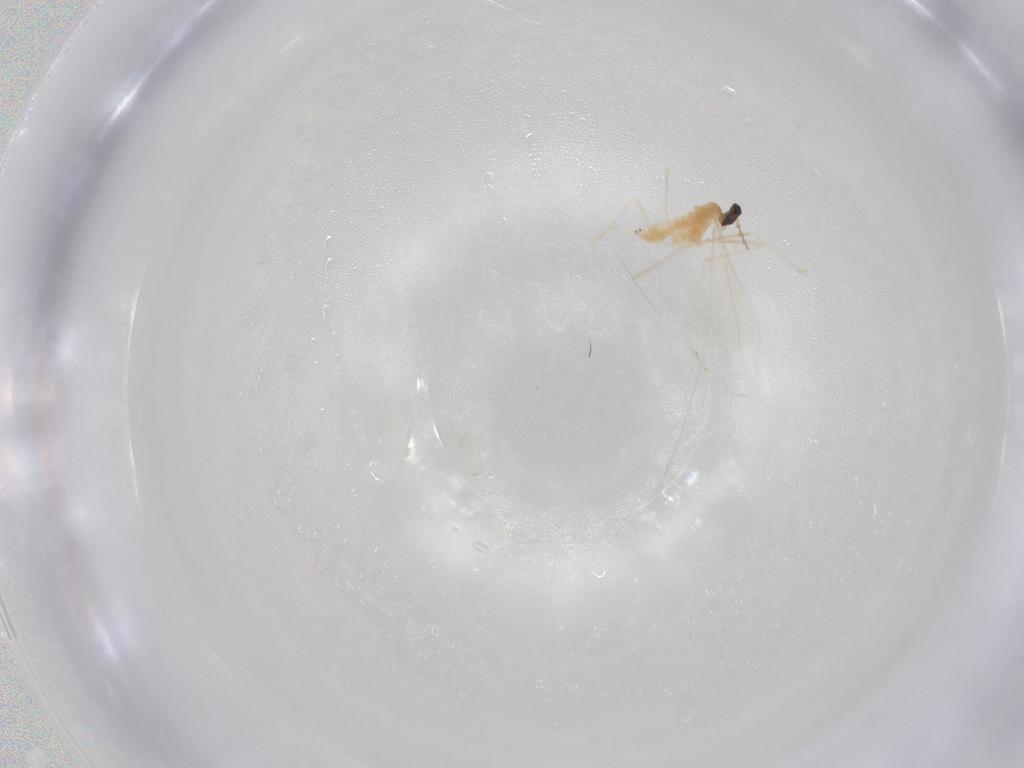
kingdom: Animalia
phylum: Arthropoda
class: Insecta
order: Diptera
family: Cecidomyiidae
